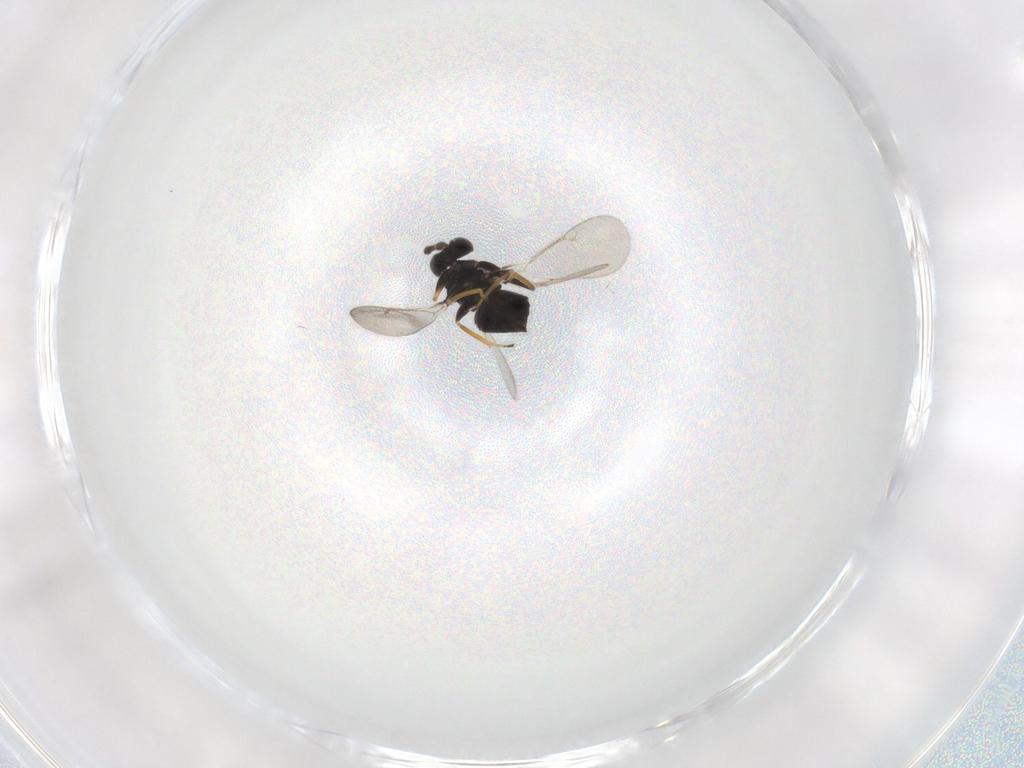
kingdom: Animalia
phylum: Arthropoda
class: Insecta
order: Hymenoptera
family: Eulophidae
